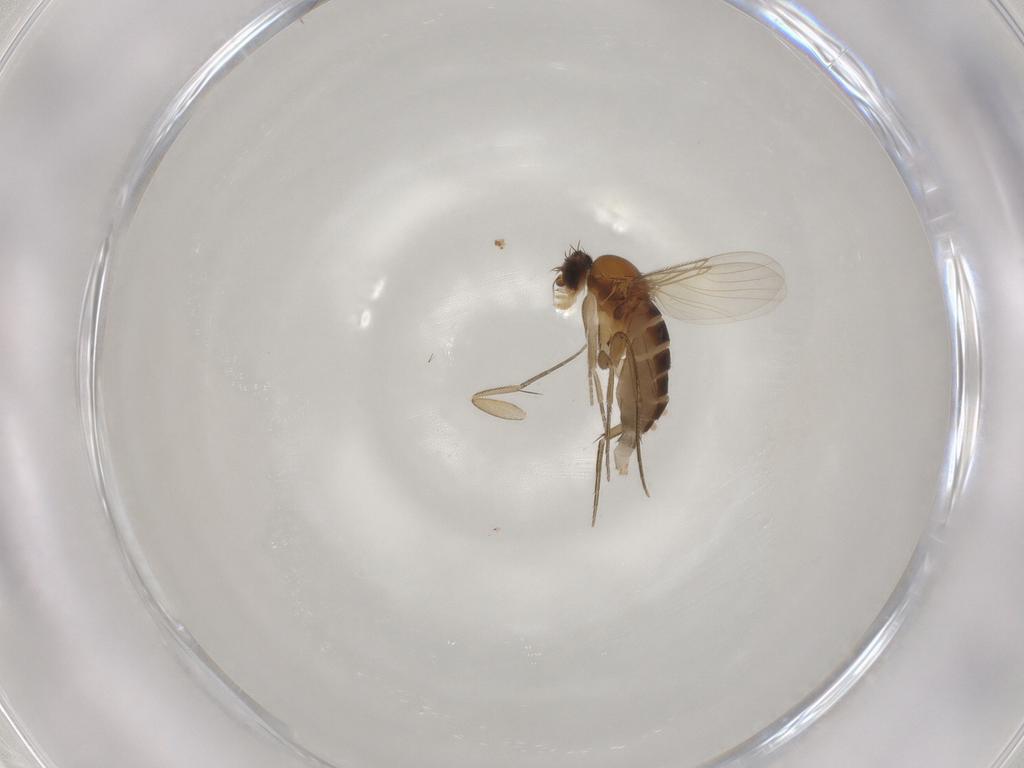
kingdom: Animalia
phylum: Arthropoda
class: Insecta
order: Diptera
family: Phoridae
